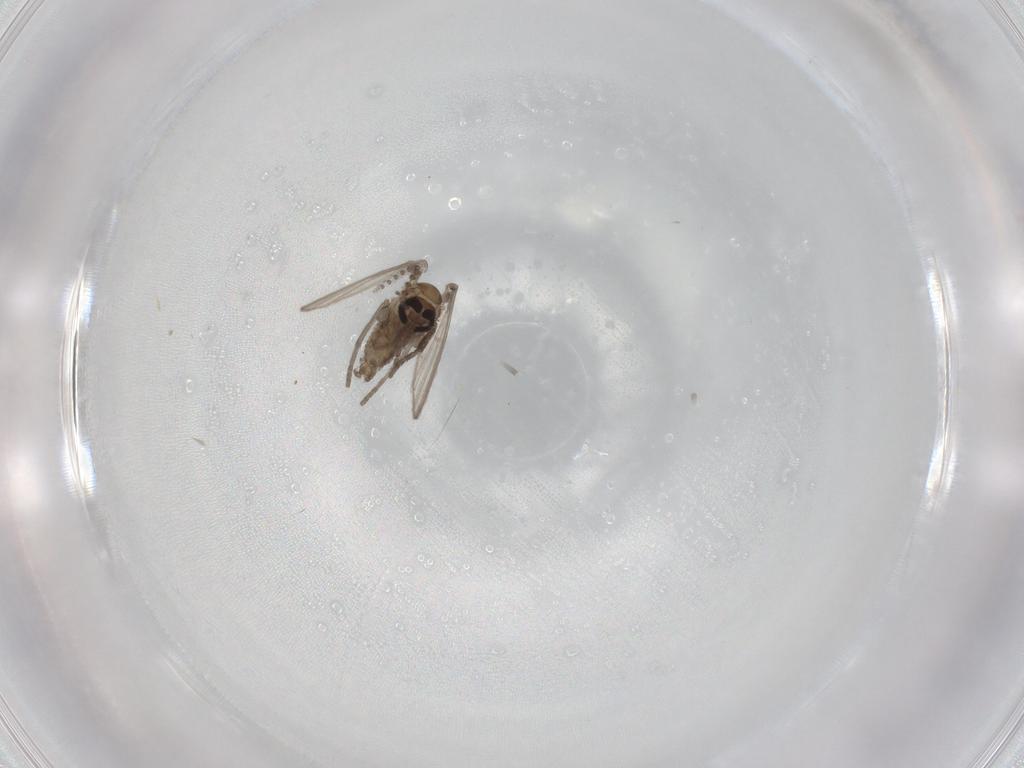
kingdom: Animalia
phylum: Arthropoda
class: Insecta
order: Diptera
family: Psychodidae
